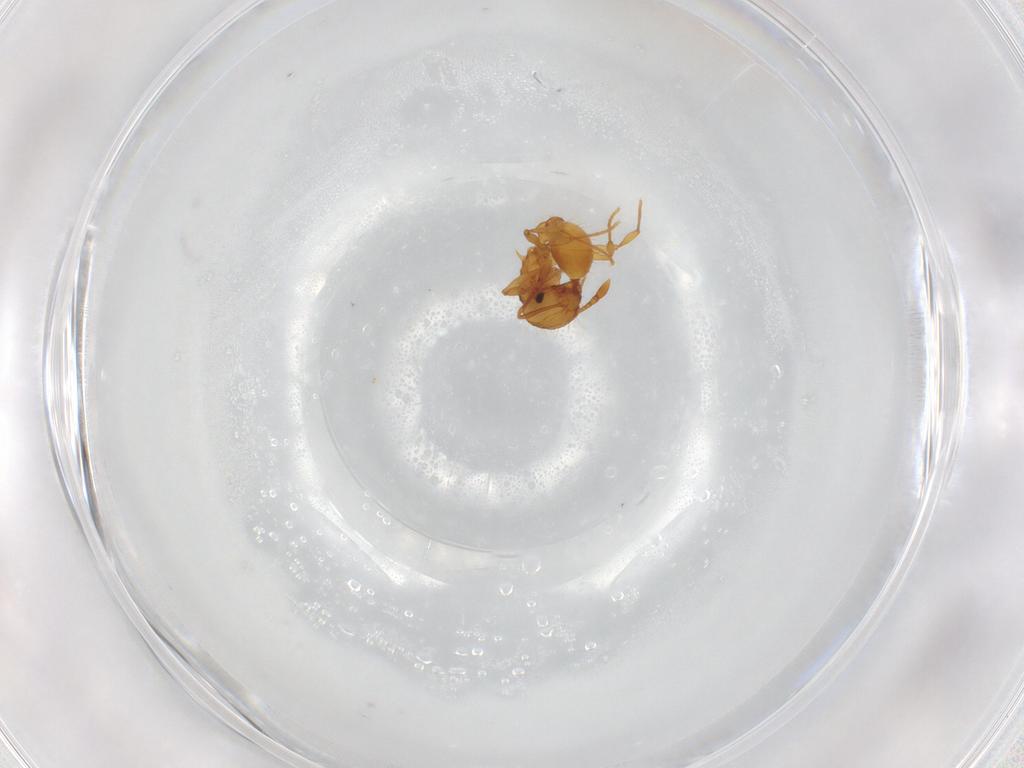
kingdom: Animalia
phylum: Arthropoda
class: Insecta
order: Hymenoptera
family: Formicidae
